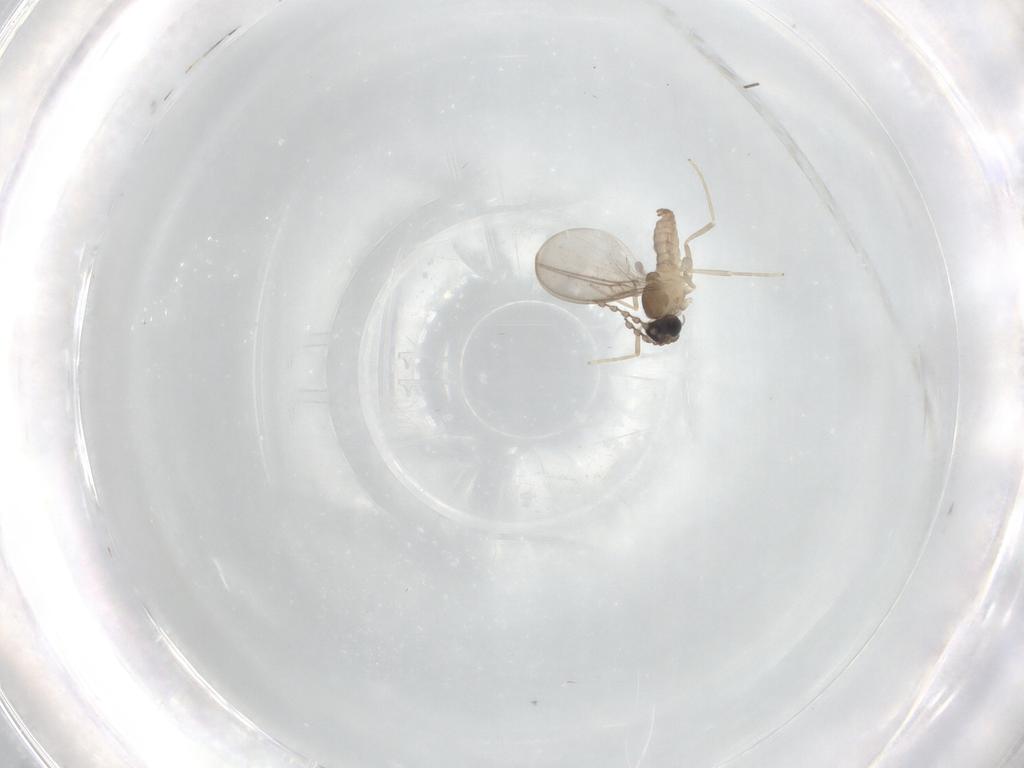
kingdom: Animalia
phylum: Arthropoda
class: Insecta
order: Diptera
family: Cecidomyiidae
